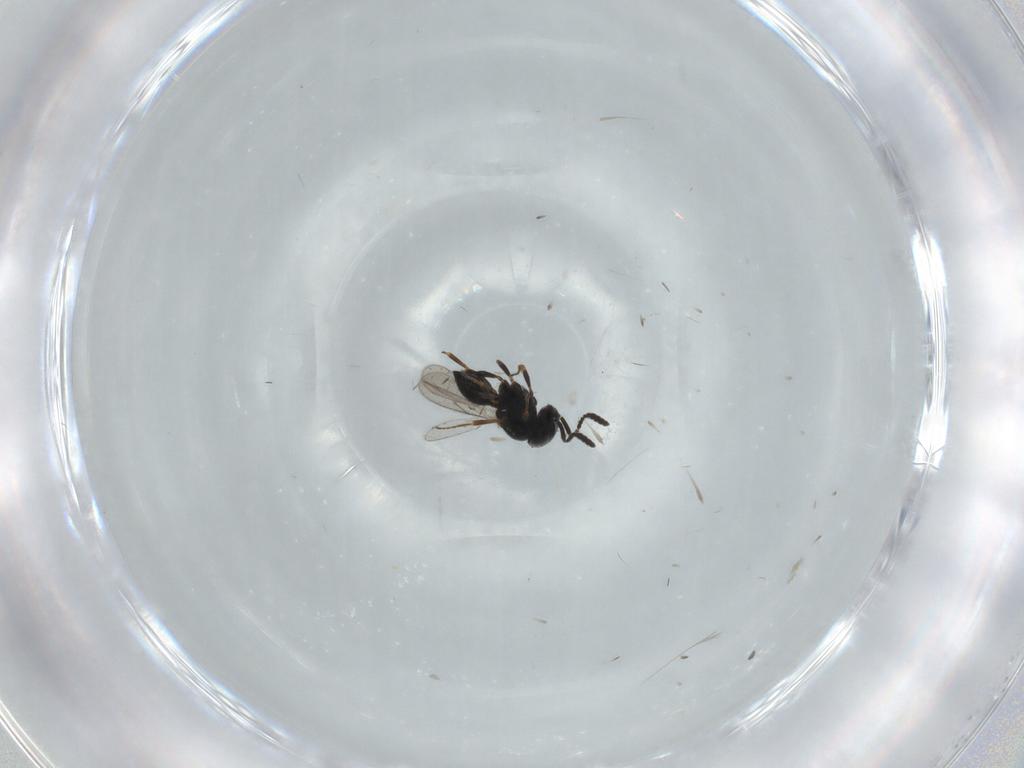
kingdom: Animalia
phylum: Arthropoda
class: Insecta
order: Hymenoptera
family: Scelionidae
